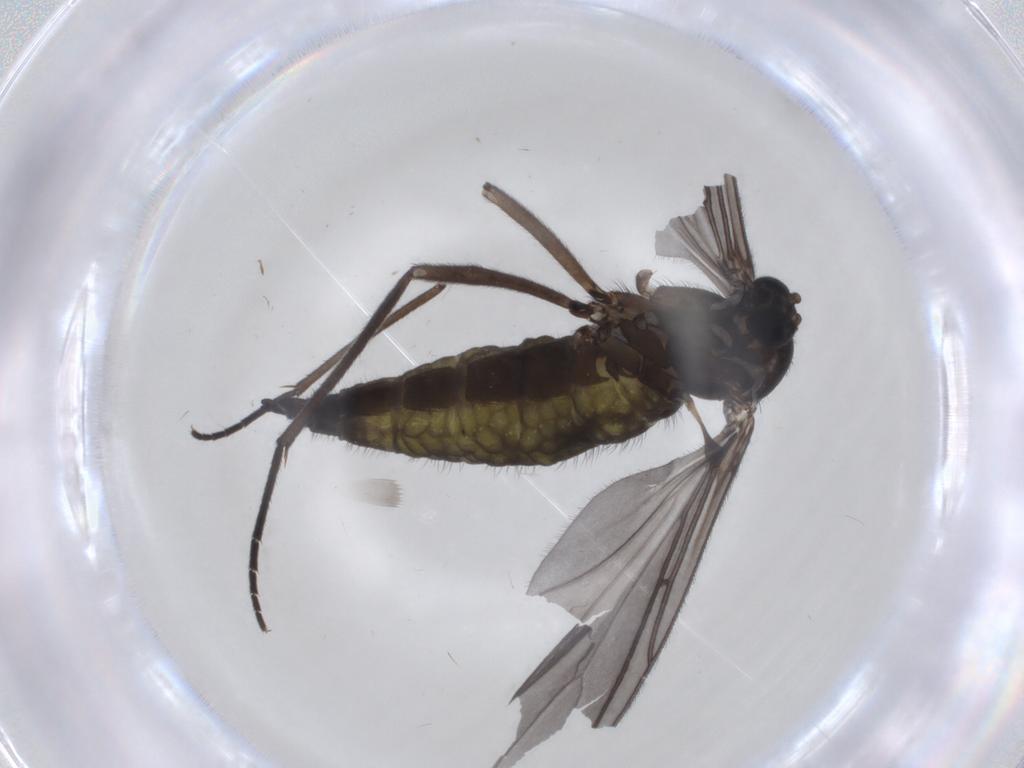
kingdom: Animalia
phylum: Arthropoda
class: Insecta
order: Diptera
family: Sciaridae
